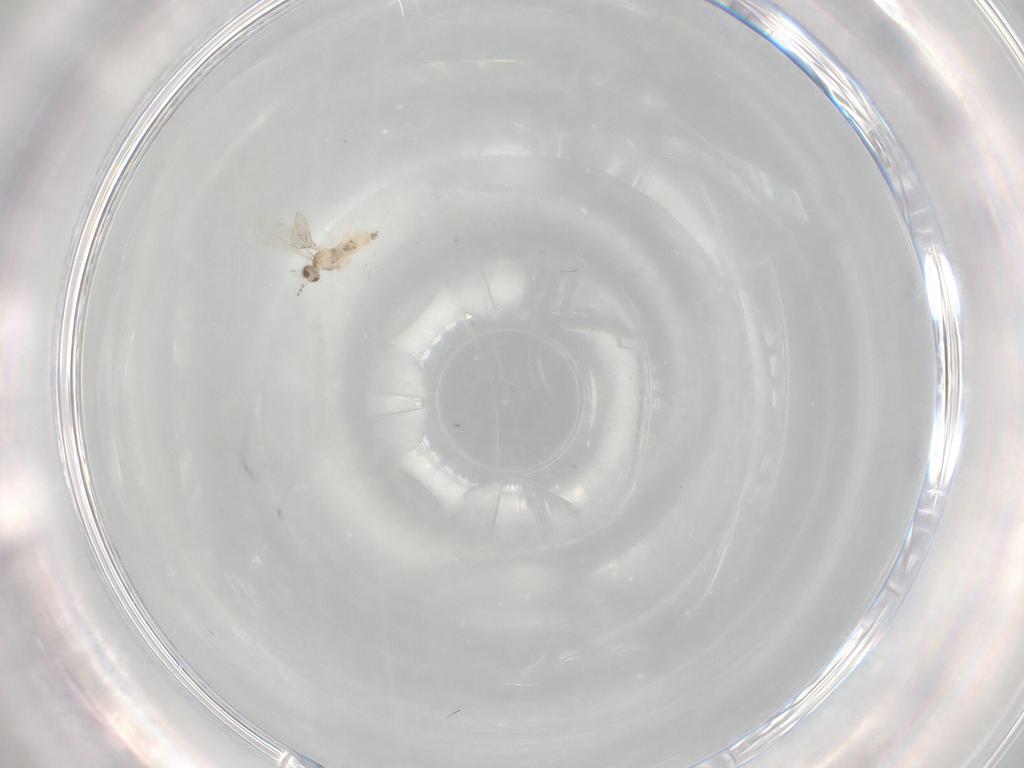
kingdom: Animalia
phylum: Arthropoda
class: Insecta
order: Diptera
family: Cecidomyiidae
